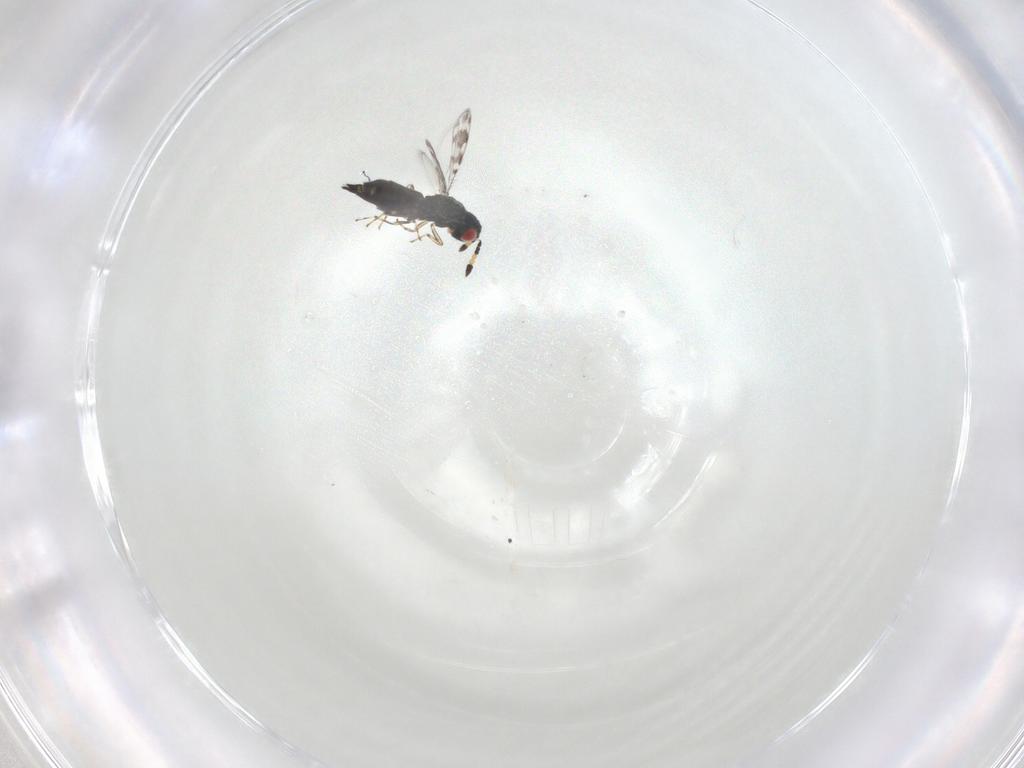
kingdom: Animalia
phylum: Arthropoda
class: Insecta
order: Hymenoptera
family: Eulophidae
